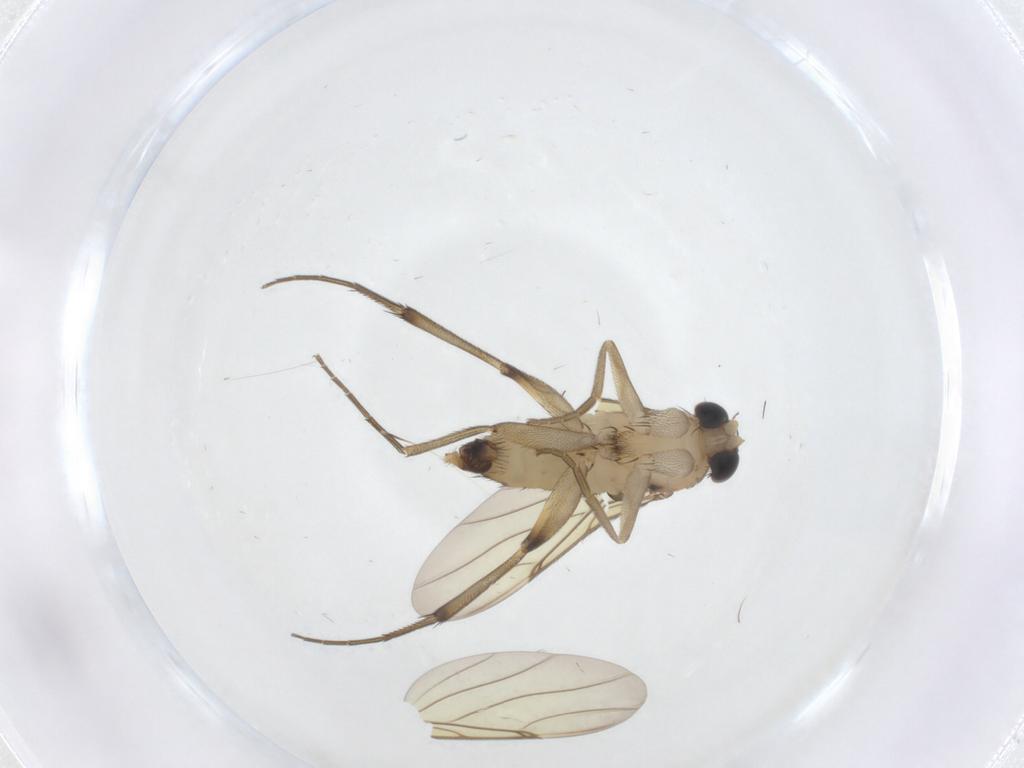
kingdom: Animalia
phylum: Arthropoda
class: Insecta
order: Diptera
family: Phoridae
